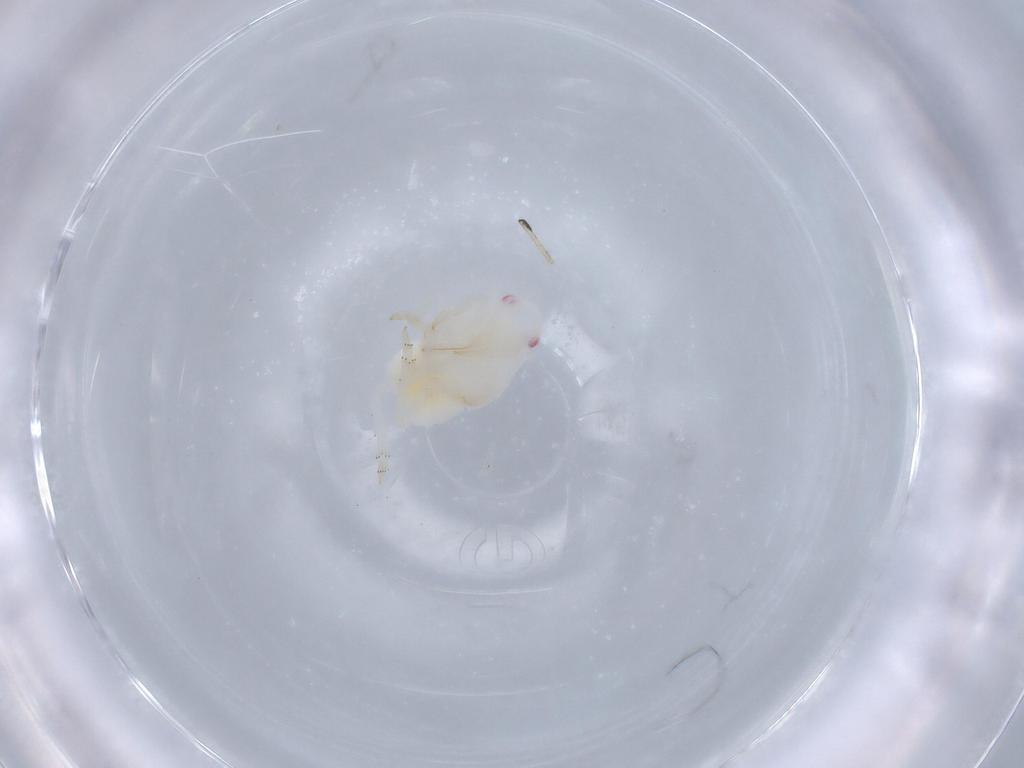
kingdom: Animalia
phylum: Arthropoda
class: Insecta
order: Hemiptera
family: Flatidae
